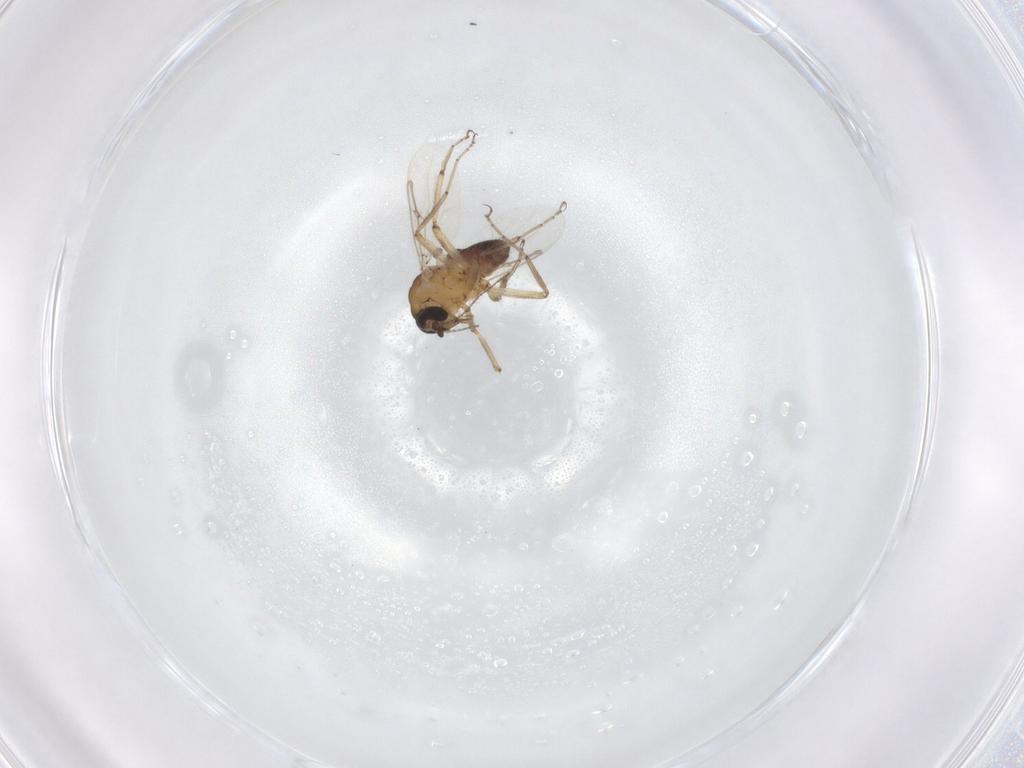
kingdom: Animalia
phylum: Arthropoda
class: Insecta
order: Diptera
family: Ceratopogonidae
